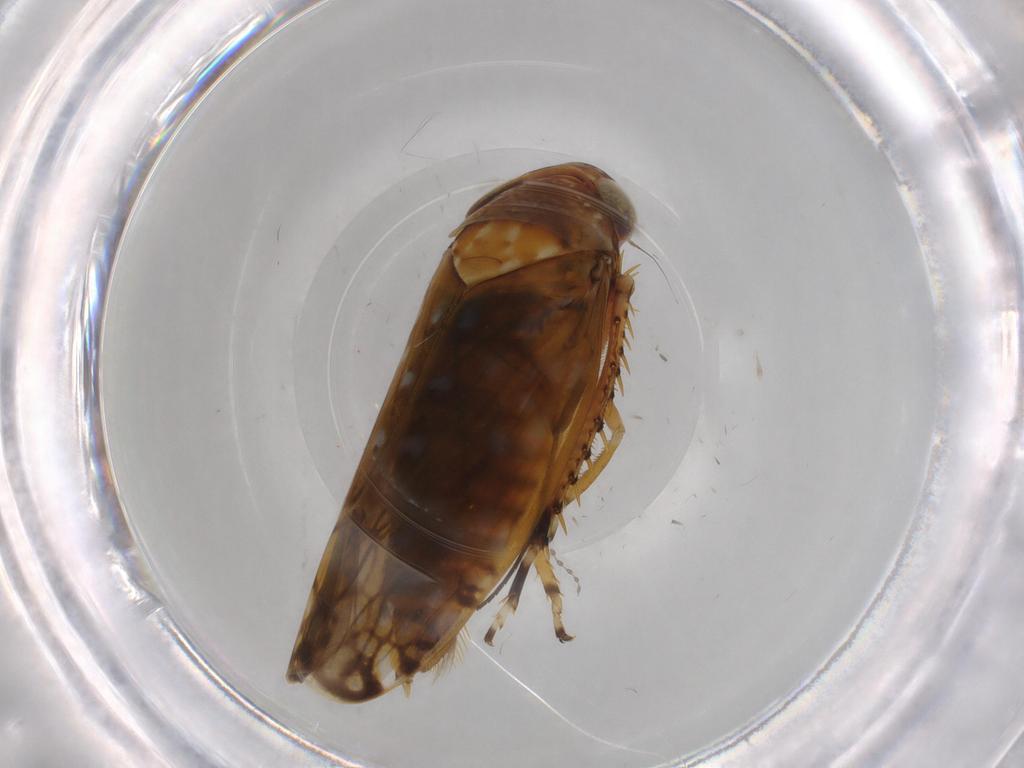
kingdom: Animalia
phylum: Arthropoda
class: Insecta
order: Hemiptera
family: Cicadellidae
